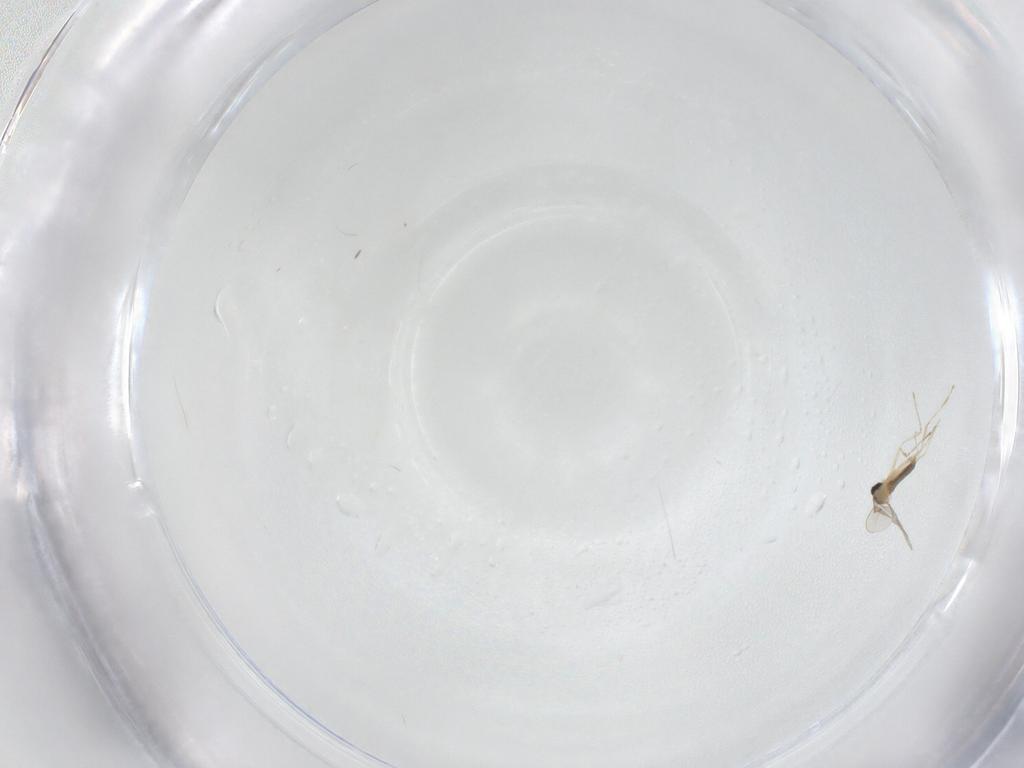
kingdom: Animalia
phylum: Arthropoda
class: Insecta
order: Diptera
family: Cecidomyiidae
